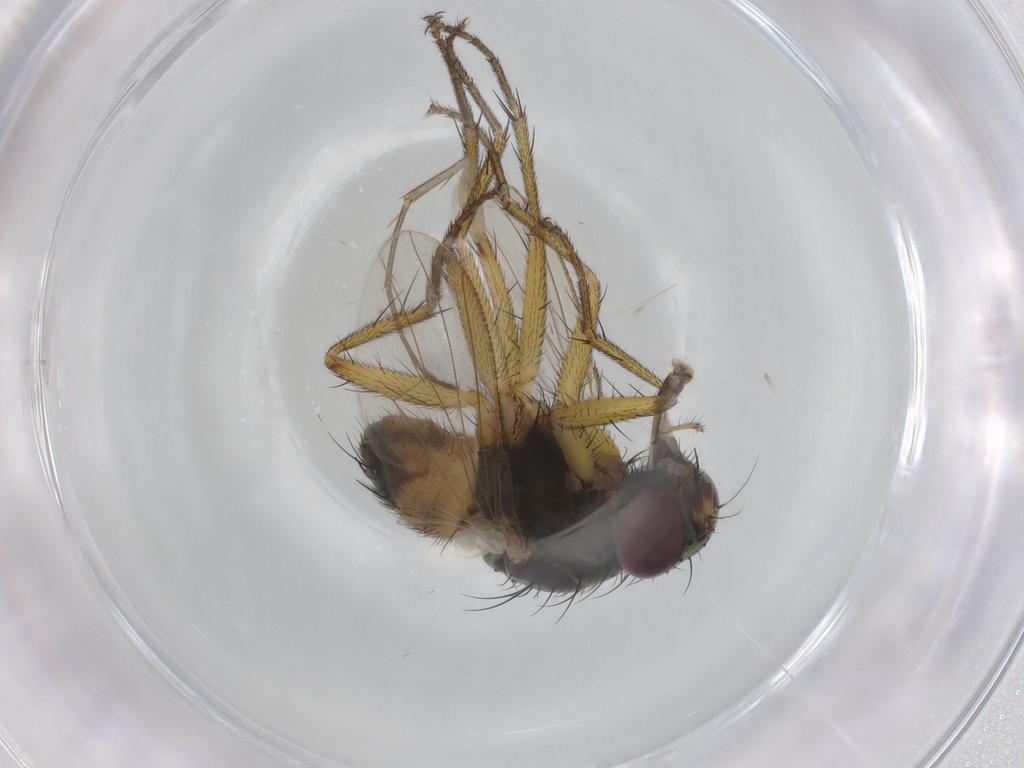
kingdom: Animalia
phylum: Arthropoda
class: Insecta
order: Diptera
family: Muscidae
